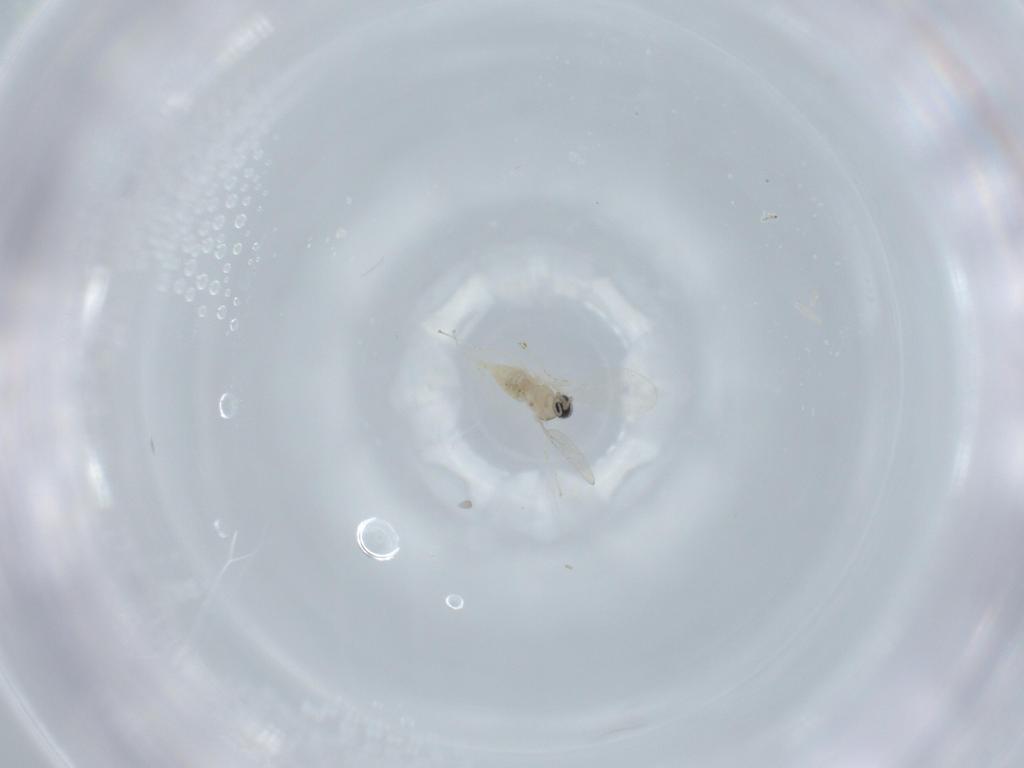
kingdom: Animalia
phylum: Arthropoda
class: Insecta
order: Diptera
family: Cecidomyiidae
